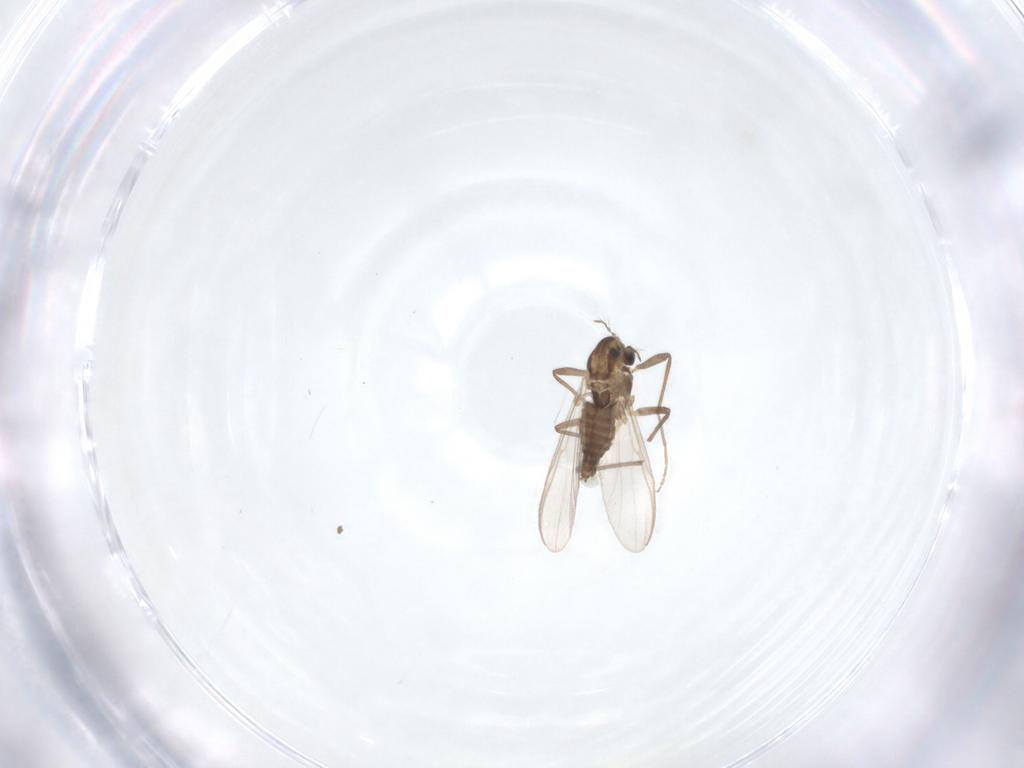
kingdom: Animalia
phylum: Arthropoda
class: Insecta
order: Diptera
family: Chironomidae
